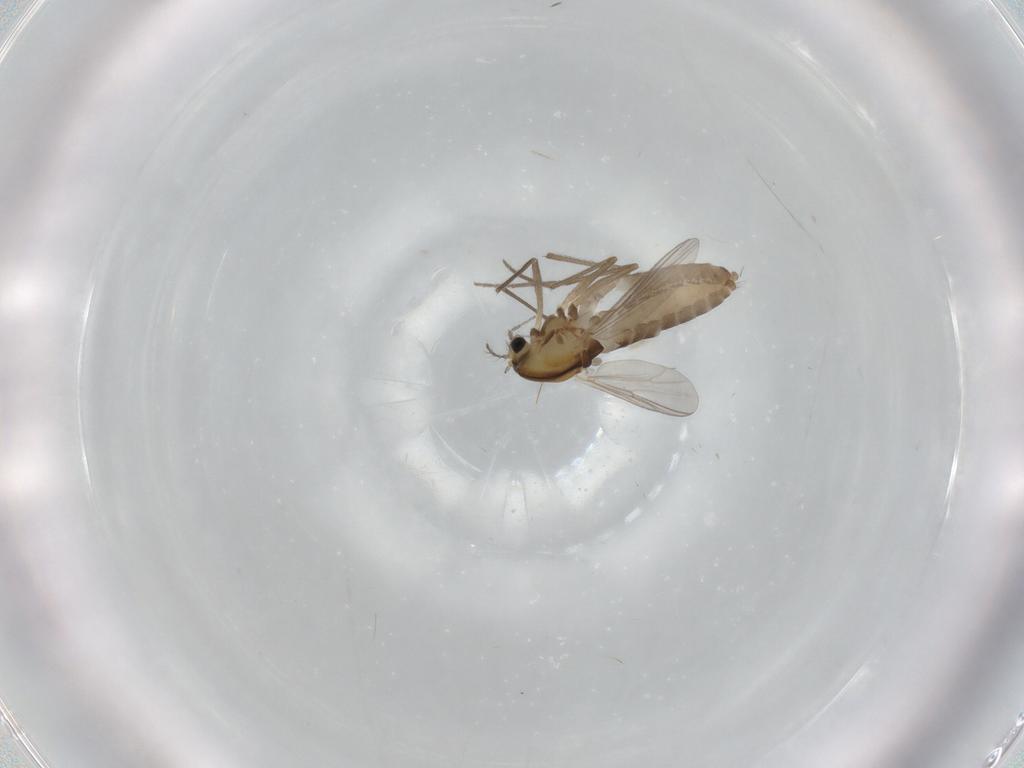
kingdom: Animalia
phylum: Arthropoda
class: Insecta
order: Diptera
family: Chironomidae
